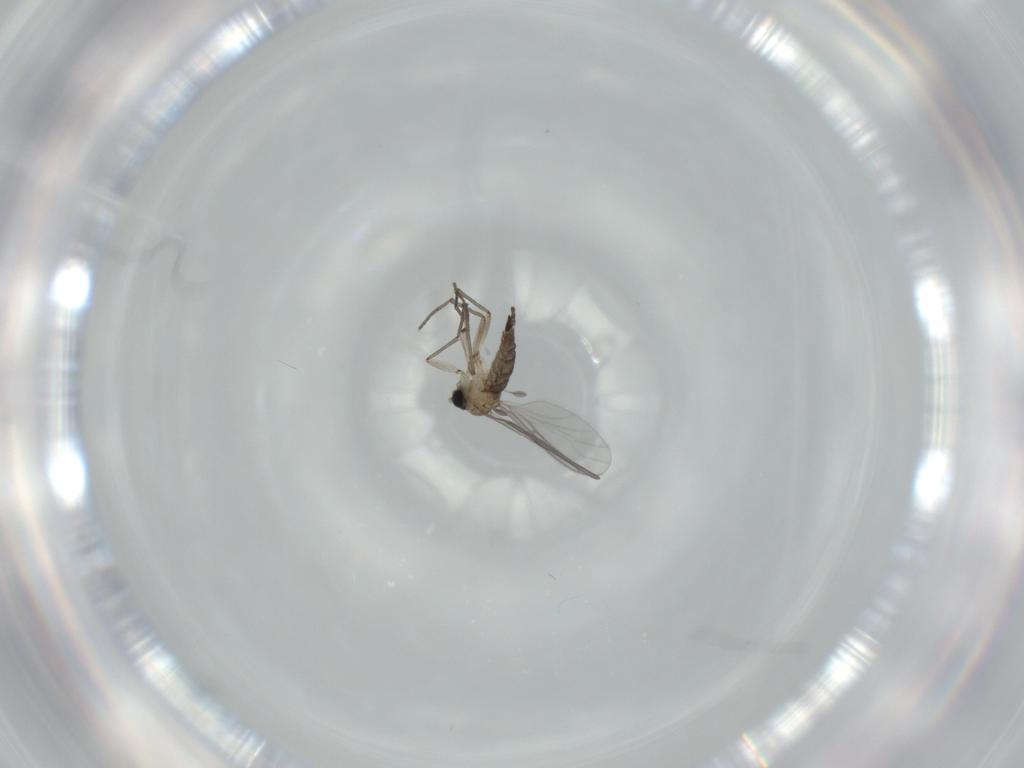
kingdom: Animalia
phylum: Arthropoda
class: Insecta
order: Diptera
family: Sciaridae
